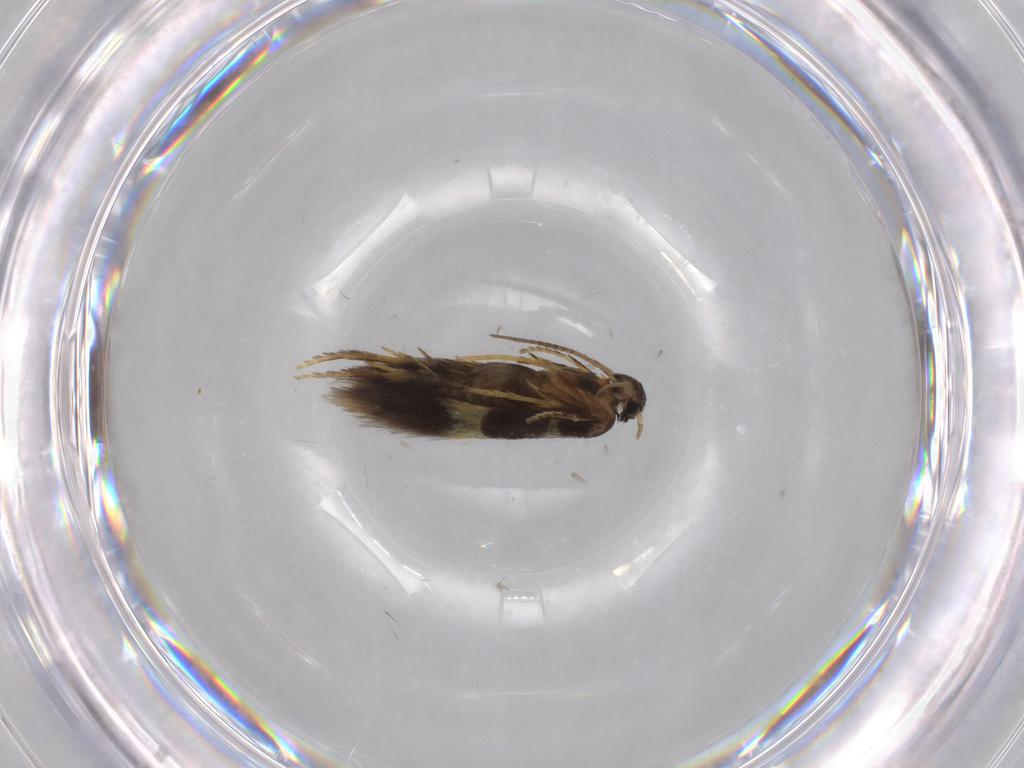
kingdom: Animalia
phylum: Arthropoda
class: Insecta
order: Lepidoptera
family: Heliozelidae
